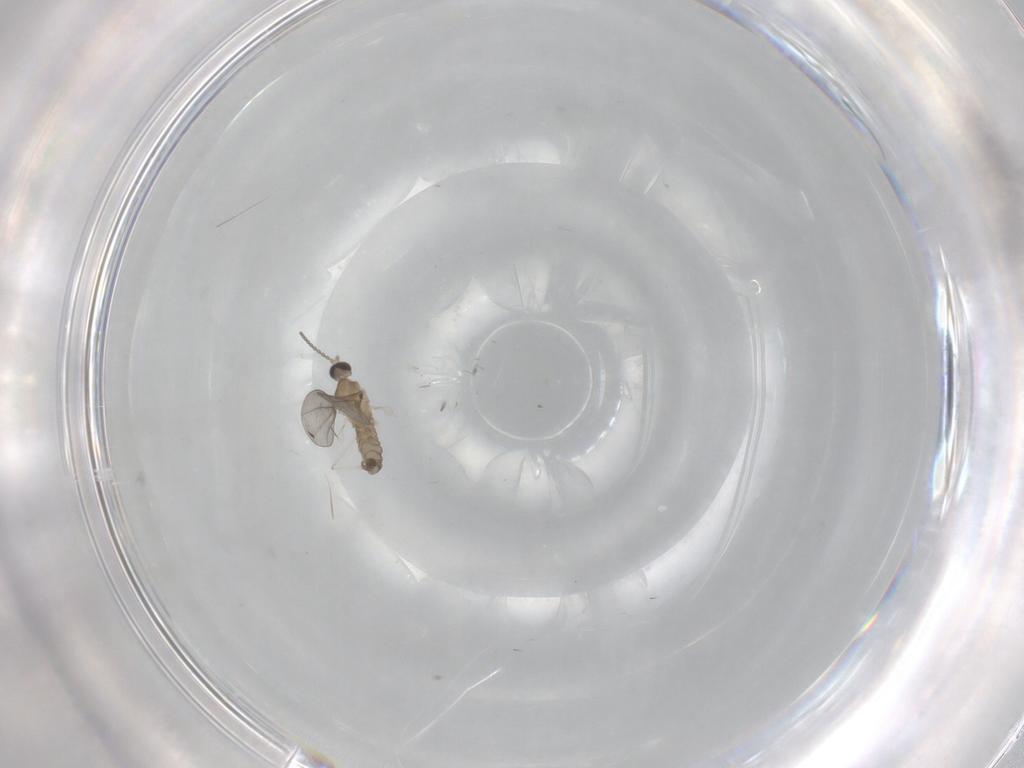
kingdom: Animalia
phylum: Arthropoda
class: Insecta
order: Diptera
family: Cecidomyiidae
